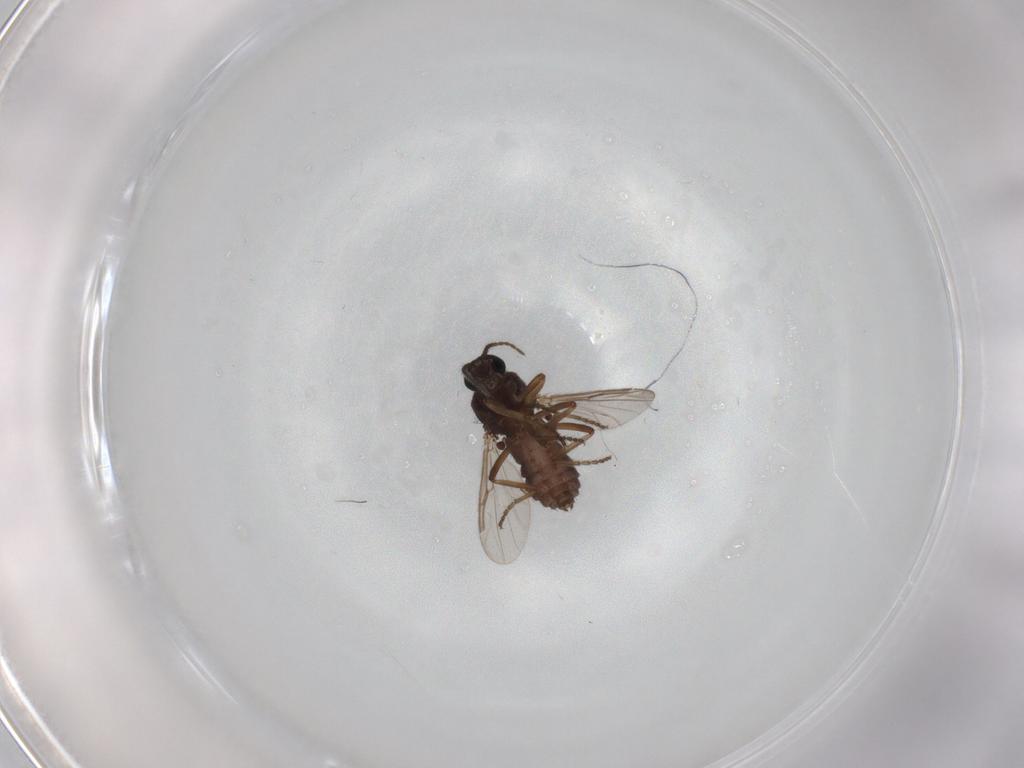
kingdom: Animalia
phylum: Arthropoda
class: Insecta
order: Diptera
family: Ceratopogonidae
